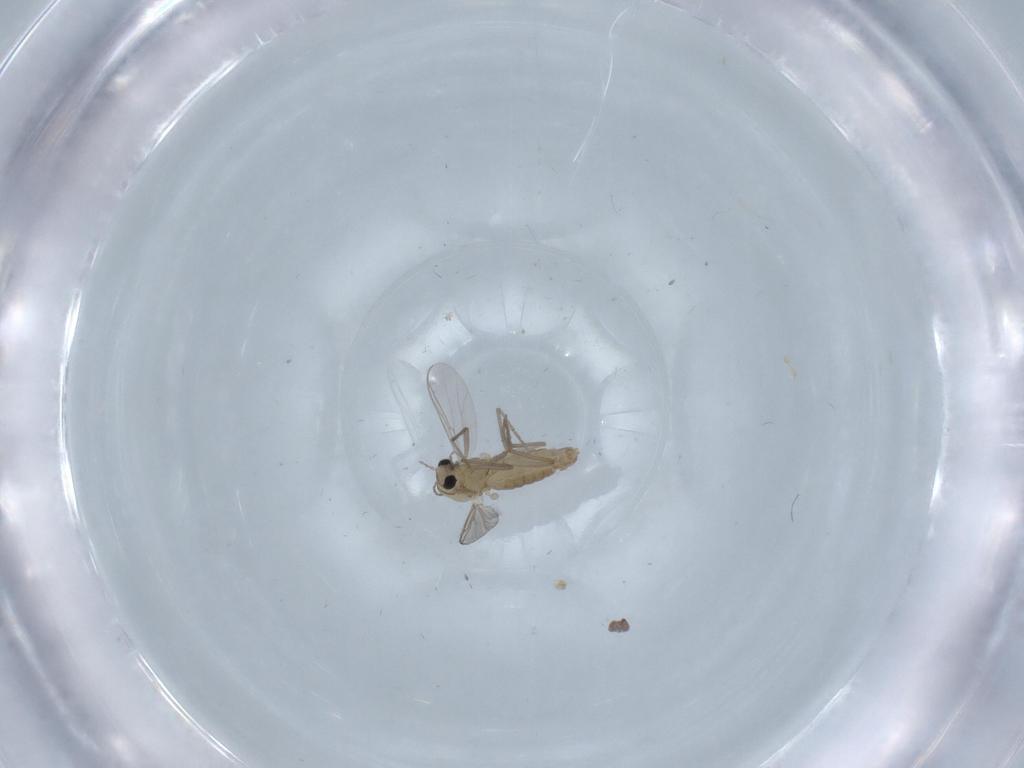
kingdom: Animalia
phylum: Arthropoda
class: Insecta
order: Diptera
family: Chironomidae
